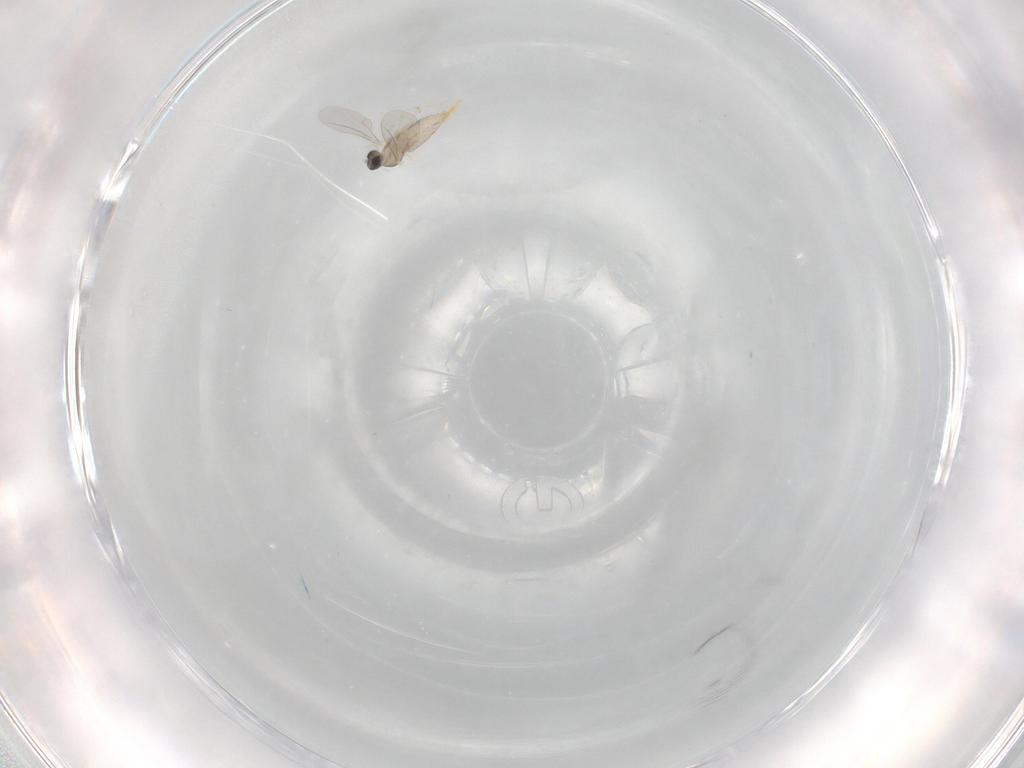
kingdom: Animalia
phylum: Arthropoda
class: Insecta
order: Diptera
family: Cecidomyiidae
